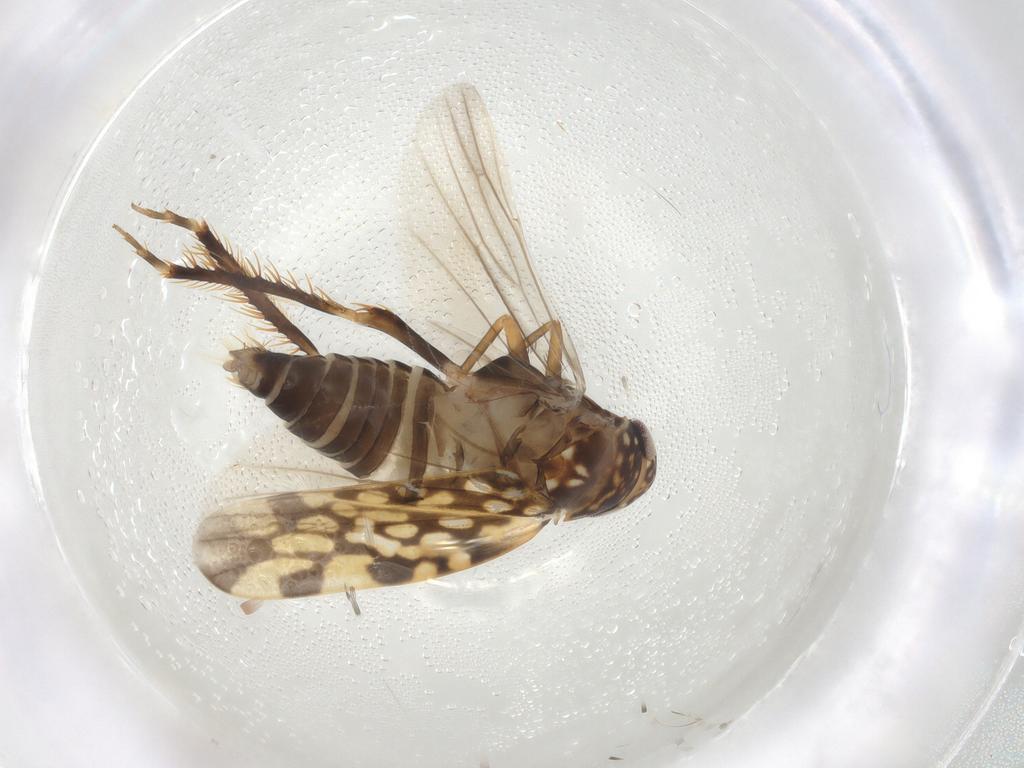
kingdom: Animalia
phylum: Arthropoda
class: Insecta
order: Hemiptera
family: Cicadellidae
